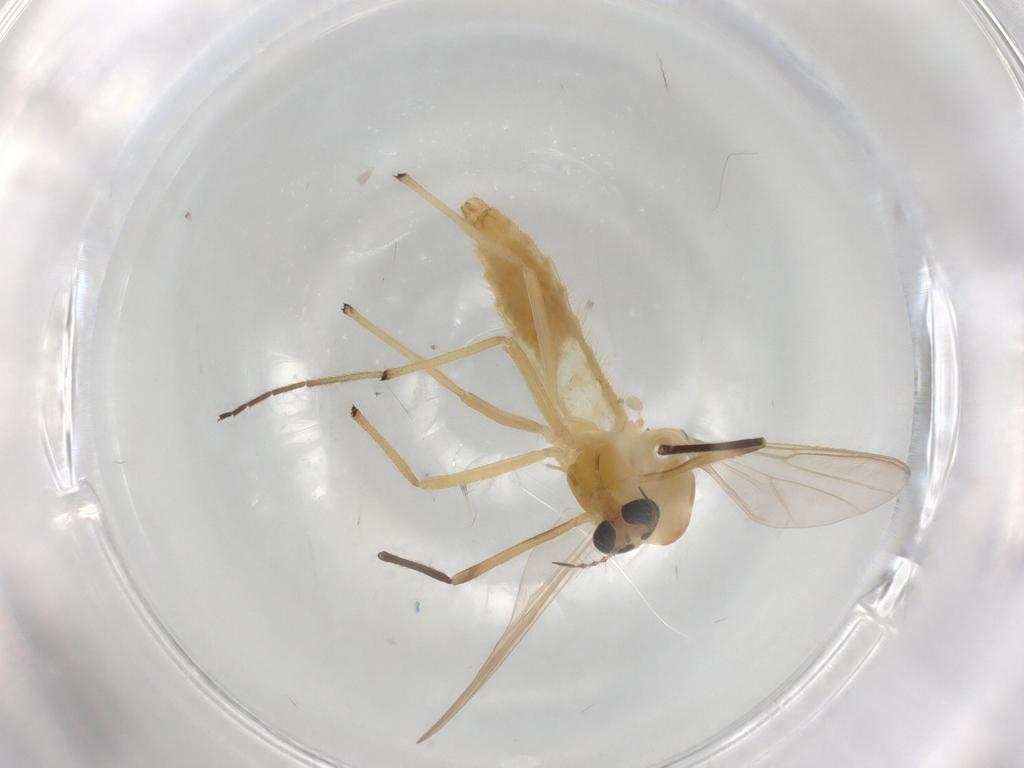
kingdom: Animalia
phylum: Arthropoda
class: Insecta
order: Diptera
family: Chironomidae
